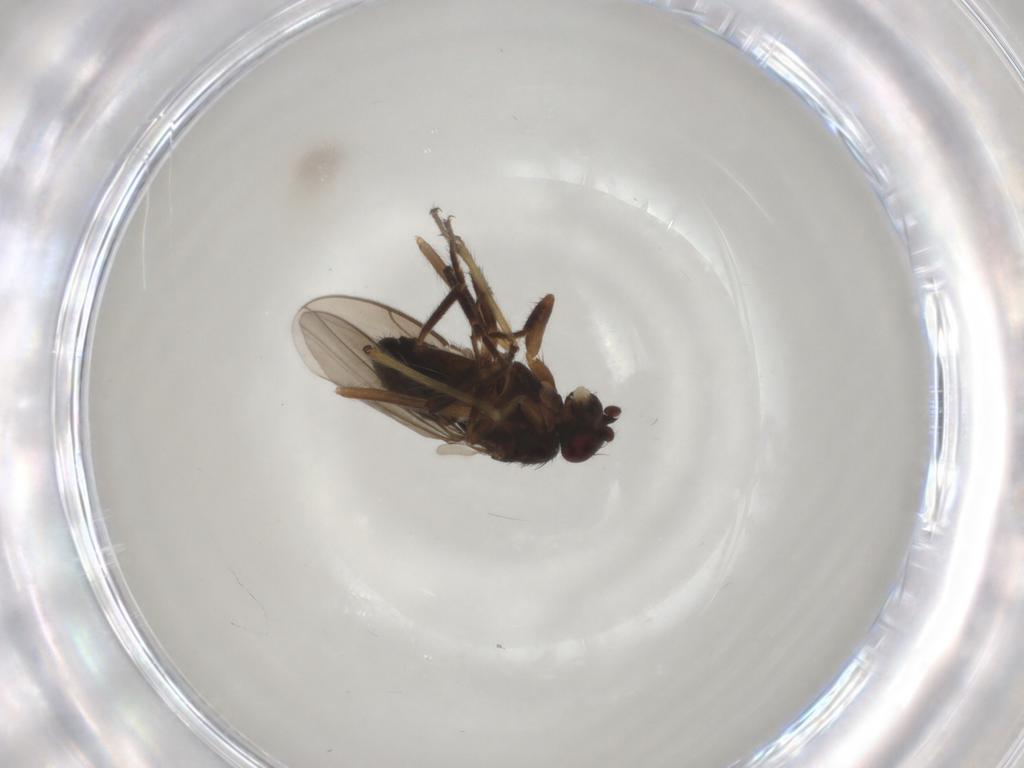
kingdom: Animalia
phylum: Arthropoda
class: Insecta
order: Diptera
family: Sphaeroceridae
